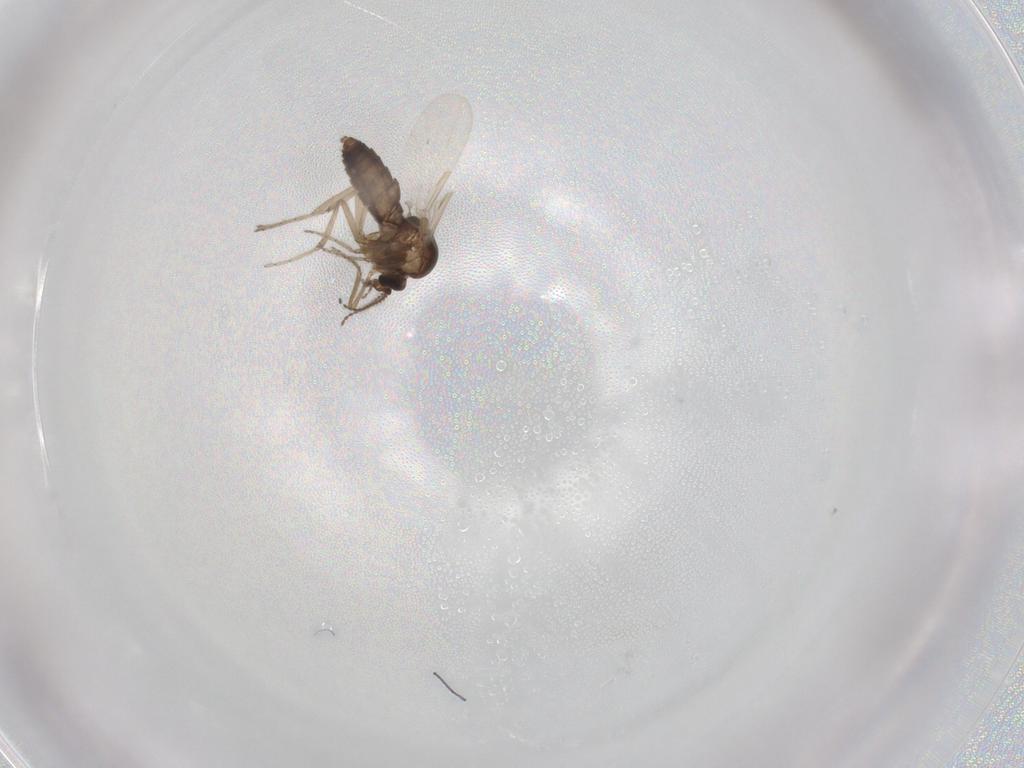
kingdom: Animalia
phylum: Arthropoda
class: Insecta
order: Diptera
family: Ceratopogonidae
